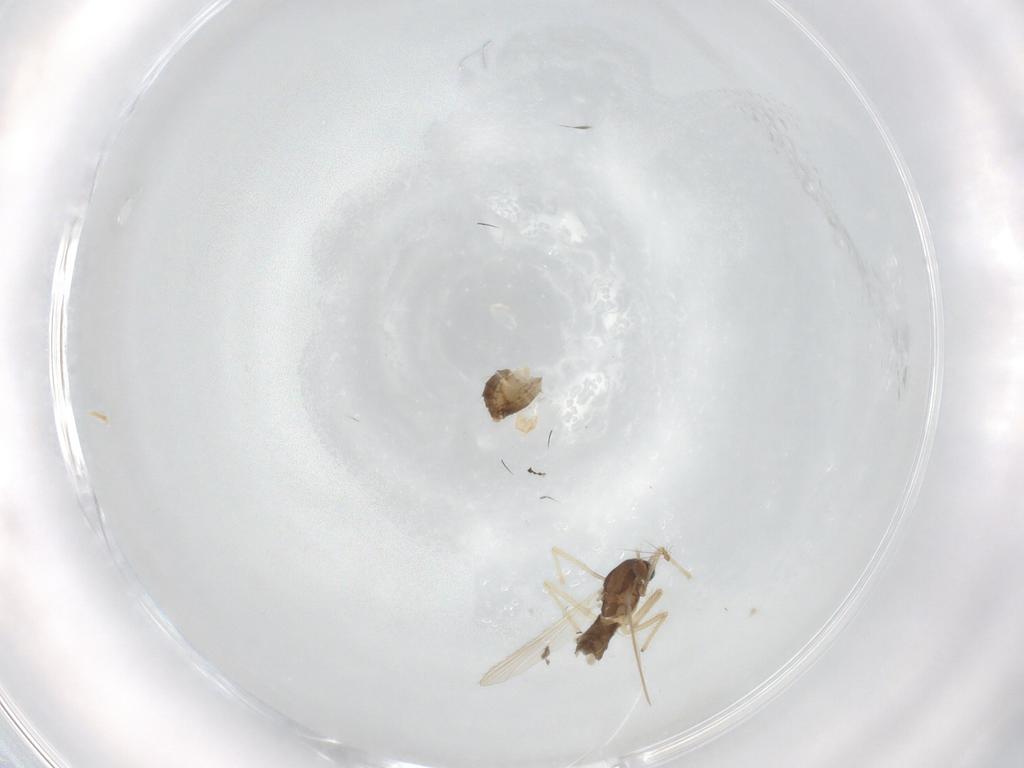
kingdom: Animalia
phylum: Arthropoda
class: Insecta
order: Diptera
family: Chironomidae
